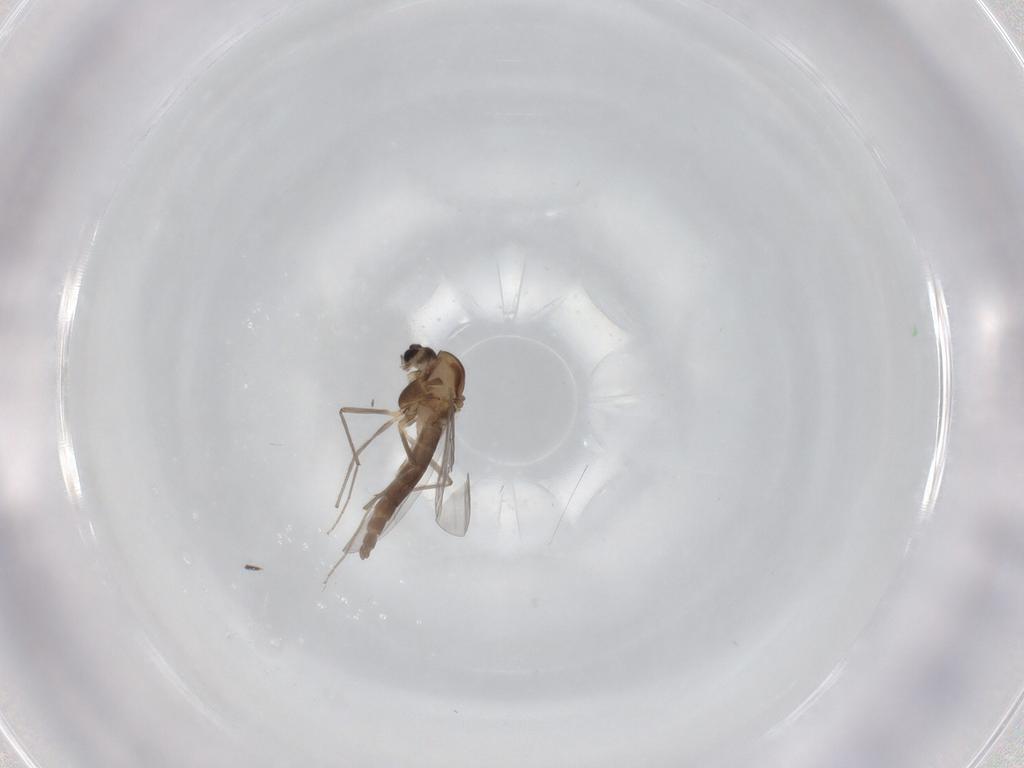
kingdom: Animalia
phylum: Arthropoda
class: Insecta
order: Diptera
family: Chironomidae
